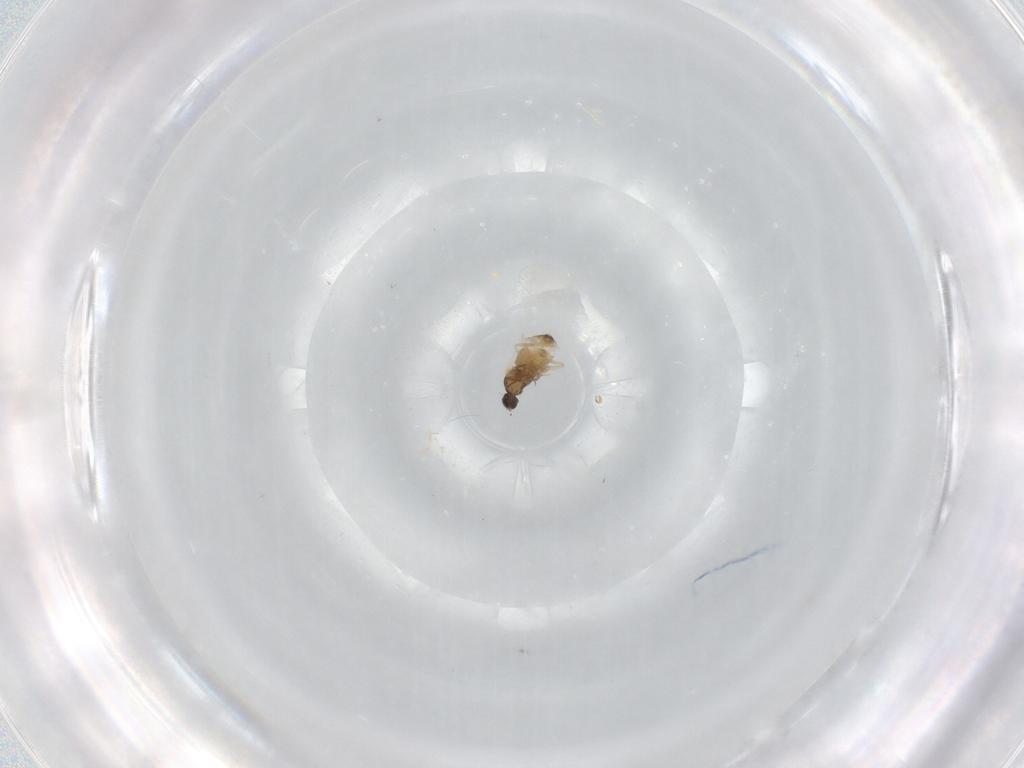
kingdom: Animalia
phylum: Arthropoda
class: Insecta
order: Diptera
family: Cecidomyiidae
